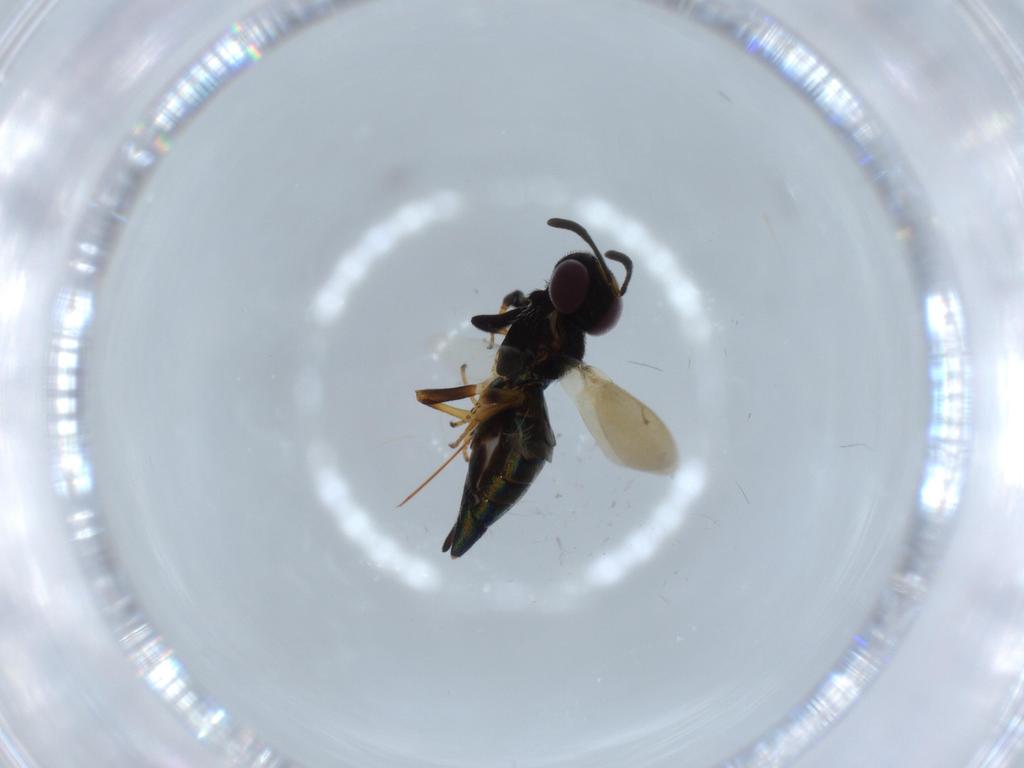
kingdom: Animalia
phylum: Arthropoda
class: Insecta
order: Hymenoptera
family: Eupelmidae
